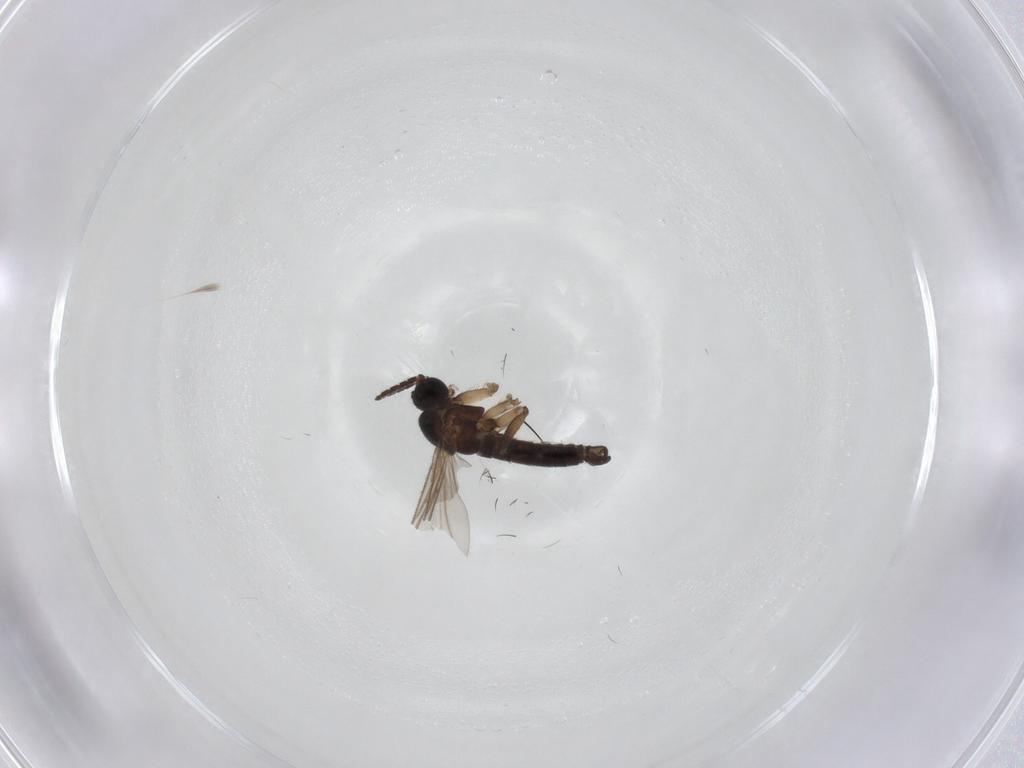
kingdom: Animalia
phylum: Arthropoda
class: Insecta
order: Diptera
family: Sciaridae
